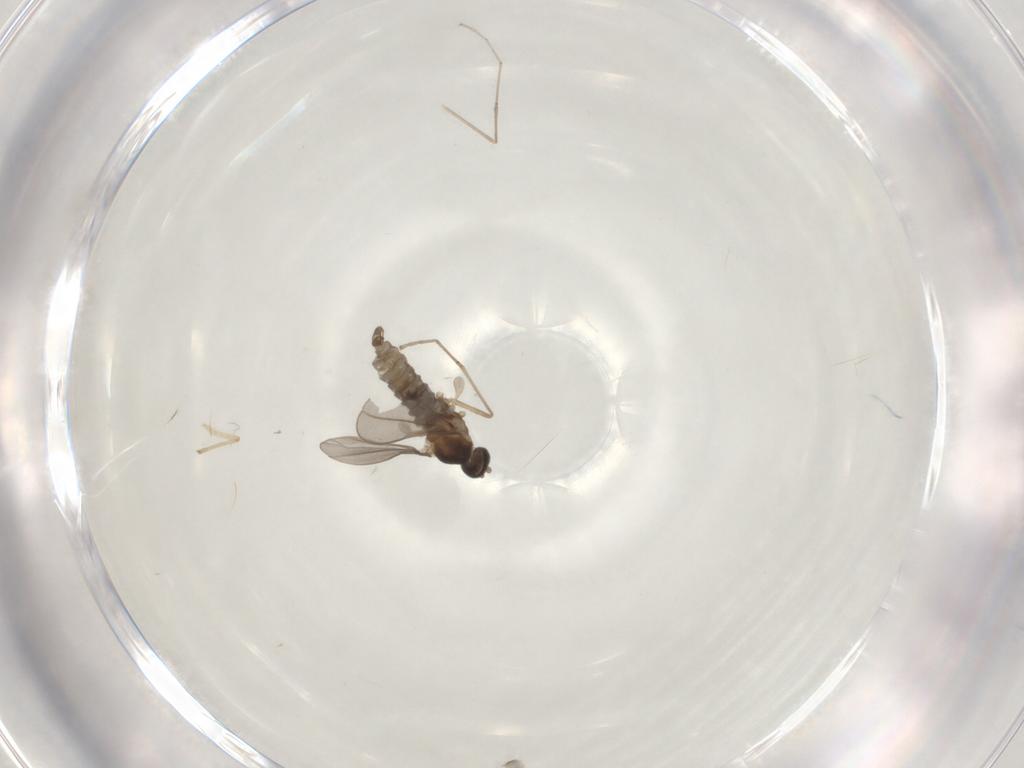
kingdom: Animalia
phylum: Arthropoda
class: Insecta
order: Diptera
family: Cecidomyiidae
